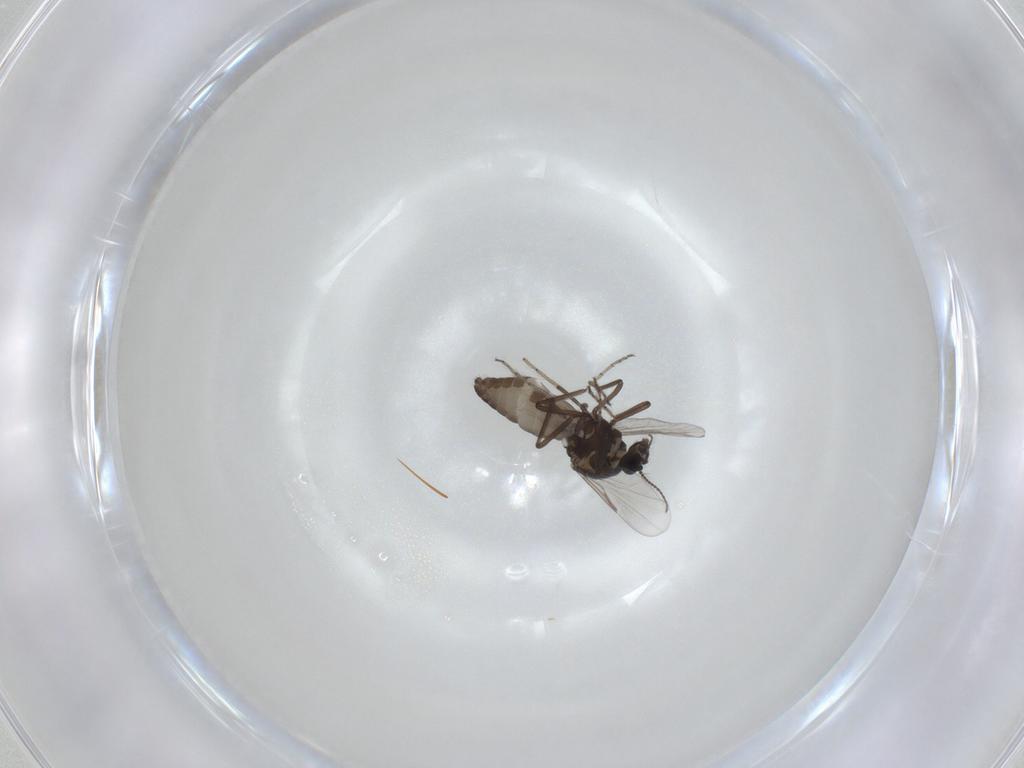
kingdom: Animalia
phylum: Arthropoda
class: Insecta
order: Diptera
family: Ceratopogonidae
